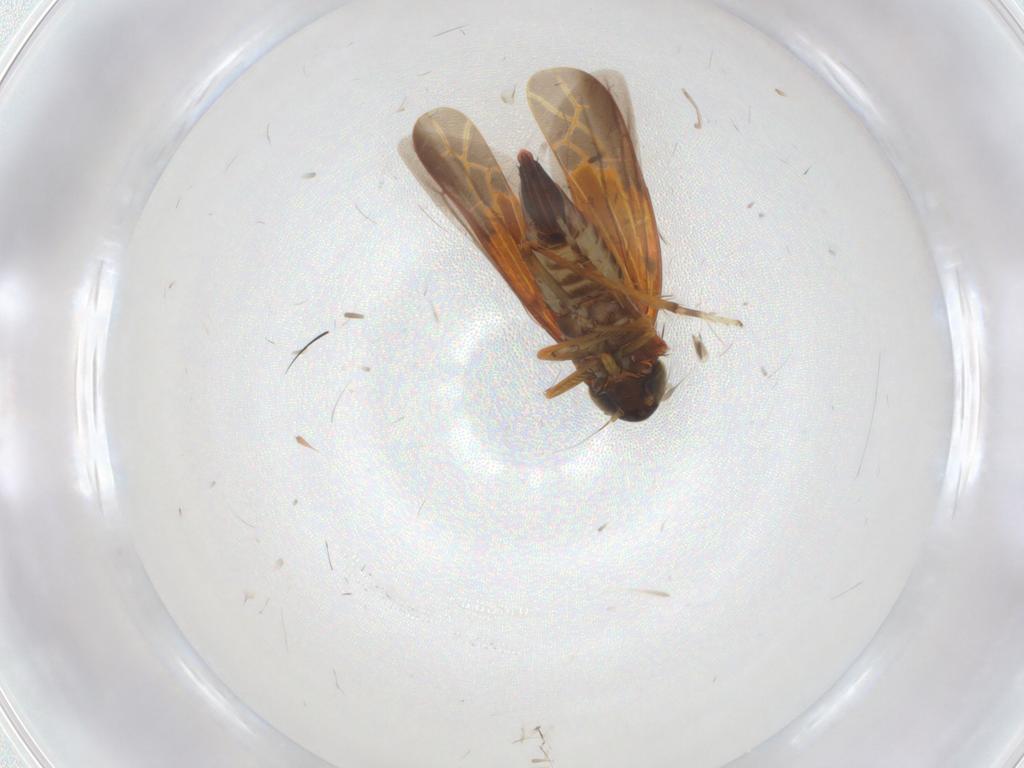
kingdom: Animalia
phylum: Arthropoda
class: Insecta
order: Hemiptera
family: Cicadellidae
